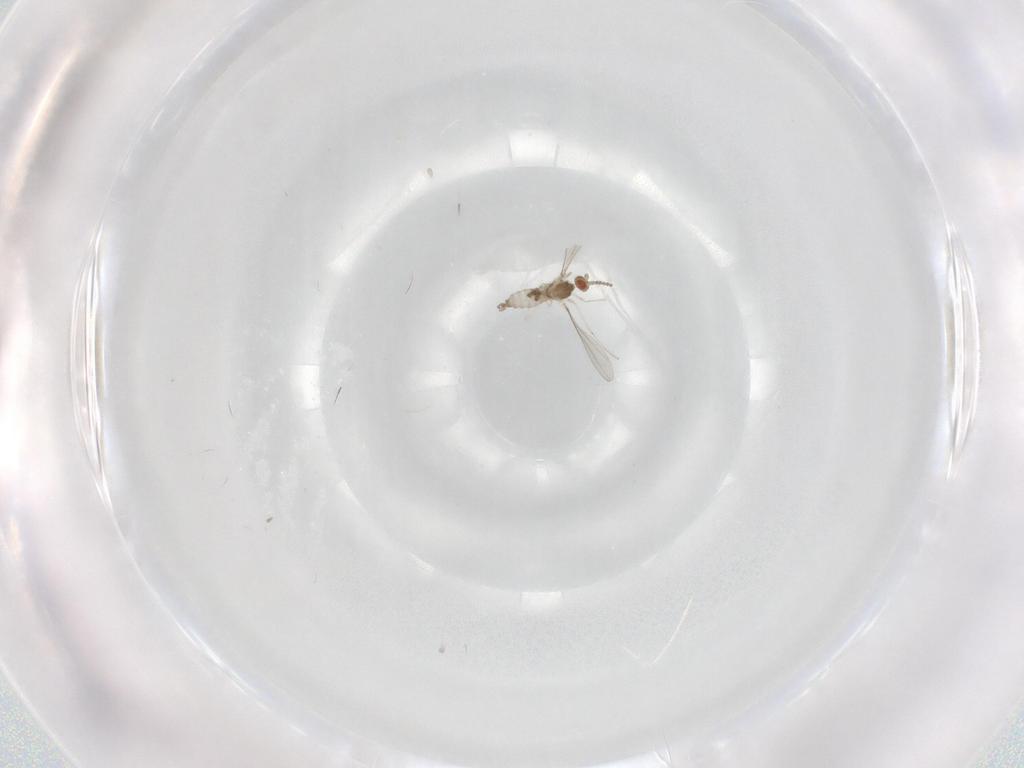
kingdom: Animalia
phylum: Arthropoda
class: Insecta
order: Diptera
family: Cecidomyiidae
